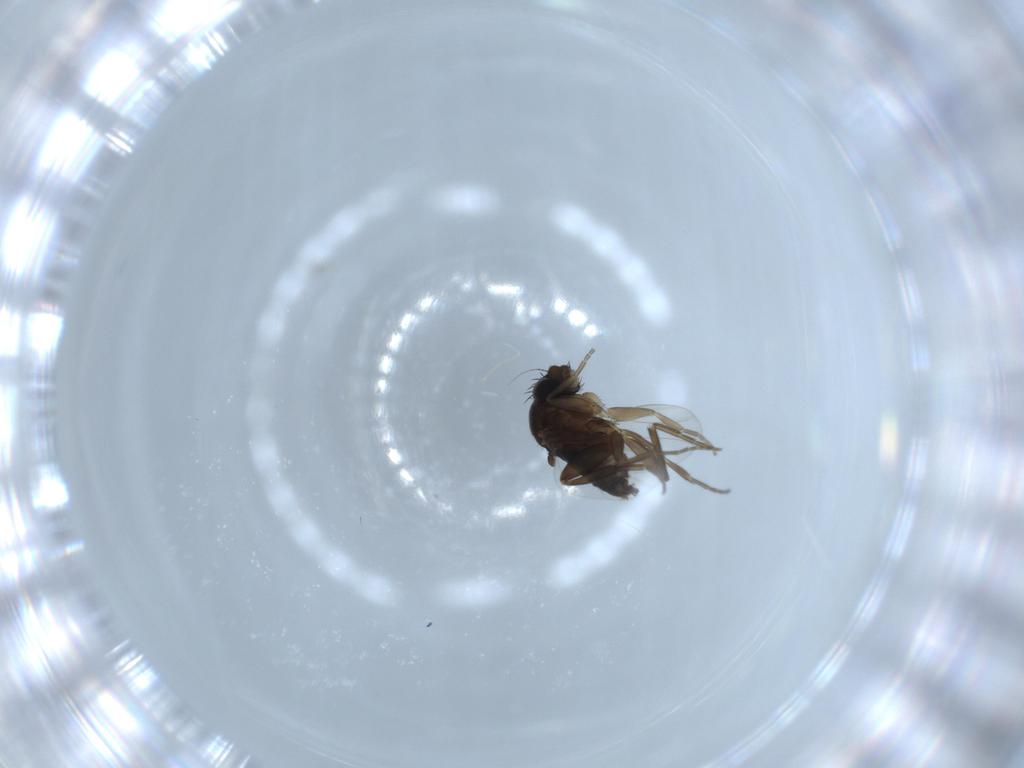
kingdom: Animalia
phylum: Arthropoda
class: Insecta
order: Diptera
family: Phoridae
